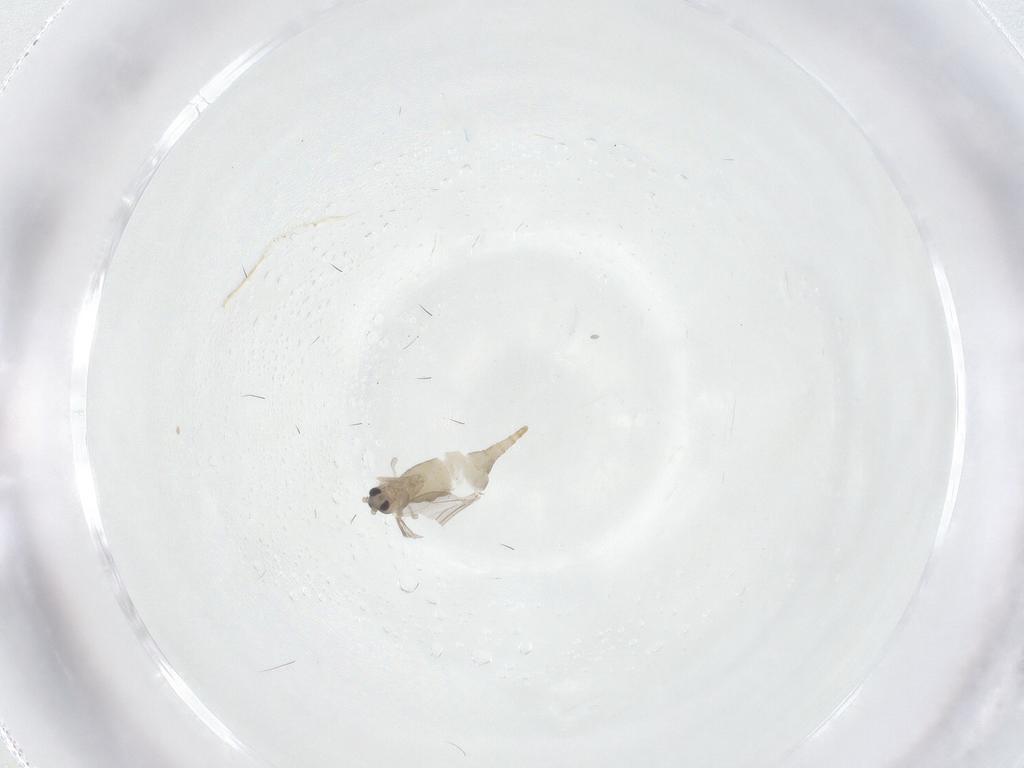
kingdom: Animalia
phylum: Arthropoda
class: Insecta
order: Diptera
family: Cecidomyiidae
